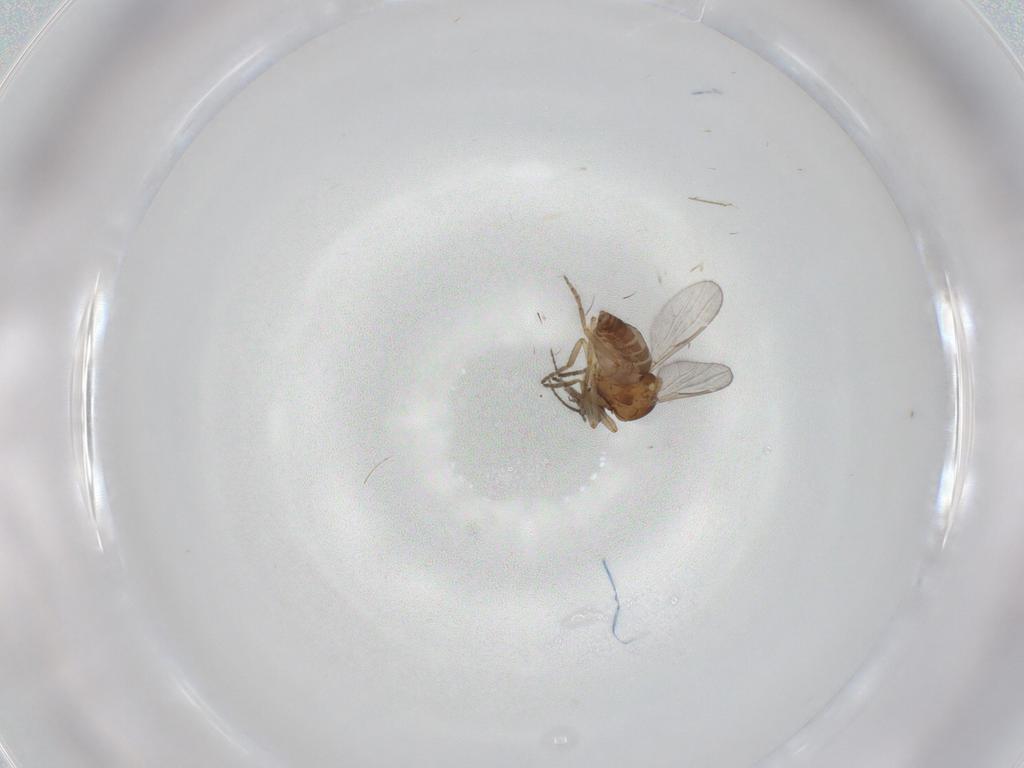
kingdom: Animalia
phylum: Arthropoda
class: Insecta
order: Diptera
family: Ceratopogonidae
